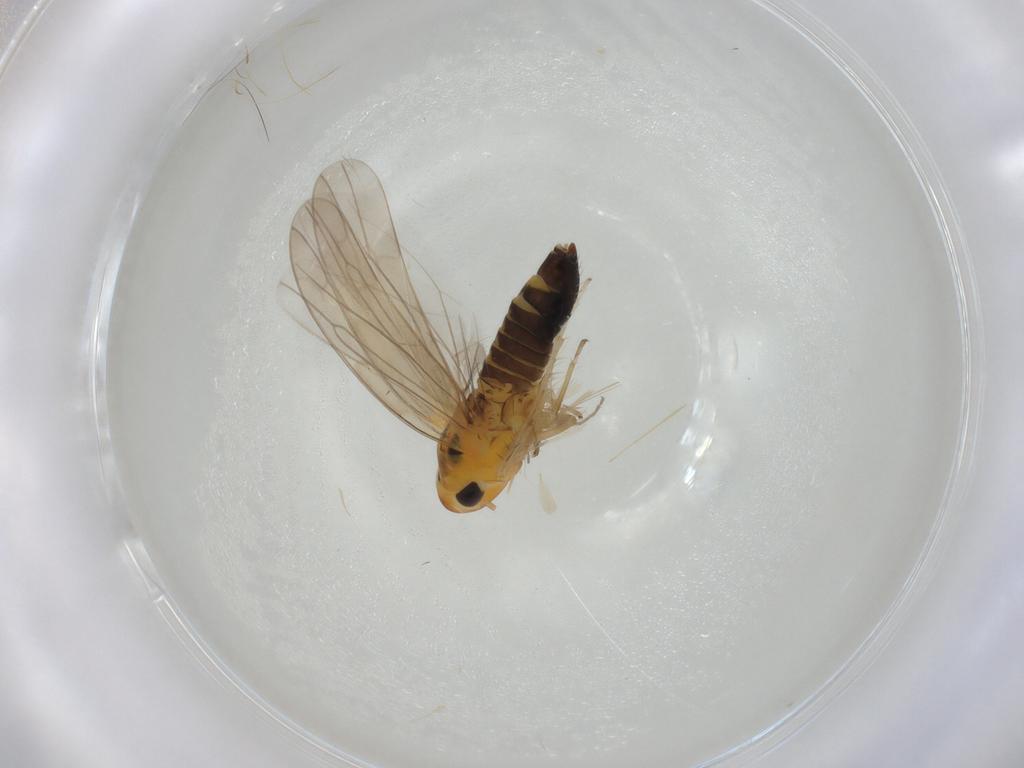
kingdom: Animalia
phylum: Arthropoda
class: Insecta
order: Hemiptera
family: Cicadellidae
